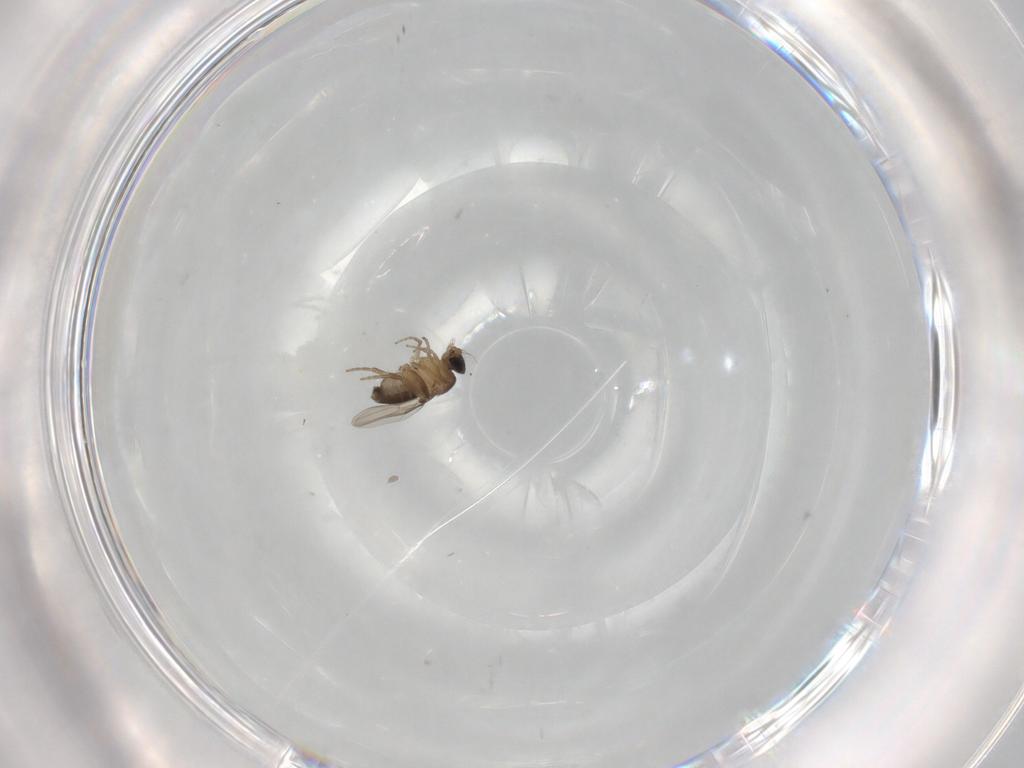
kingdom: Animalia
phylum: Arthropoda
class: Insecta
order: Diptera
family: Phoridae
